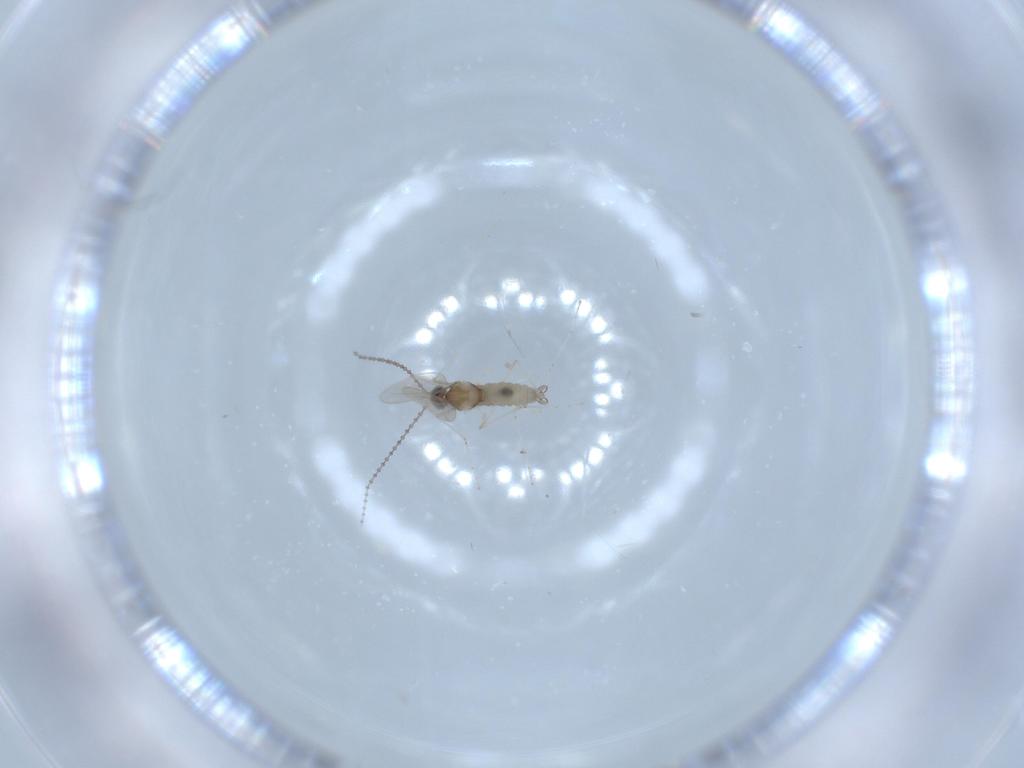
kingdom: Animalia
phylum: Arthropoda
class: Insecta
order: Diptera
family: Cecidomyiidae
